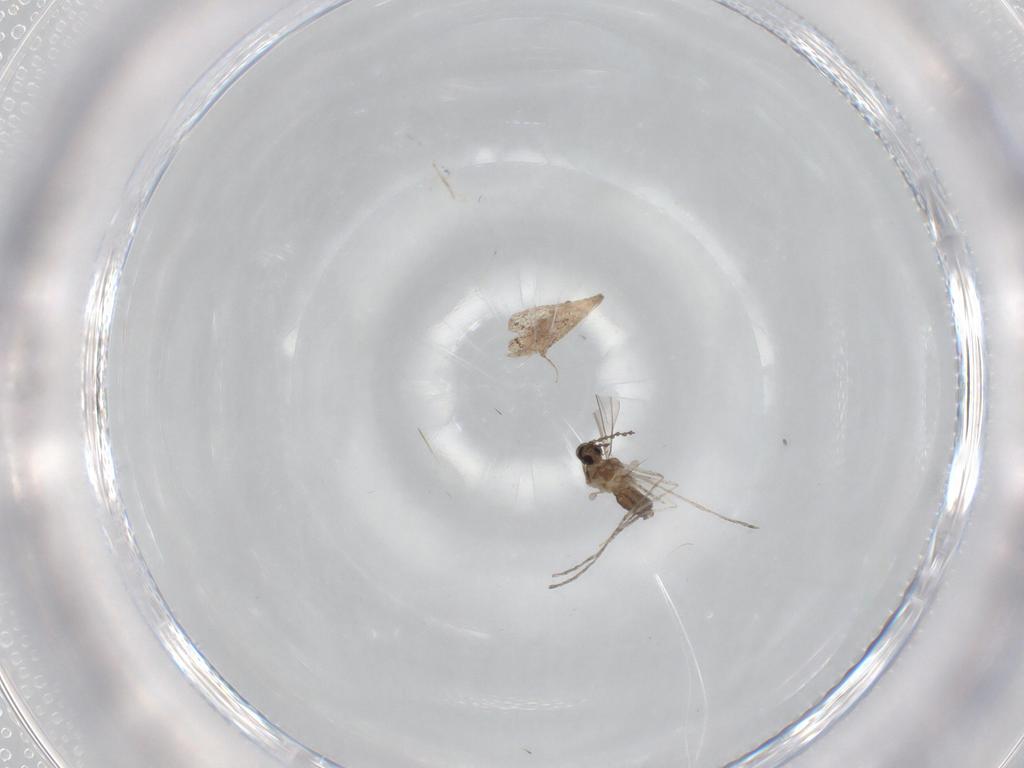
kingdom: Animalia
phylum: Arthropoda
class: Insecta
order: Diptera
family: Cecidomyiidae
